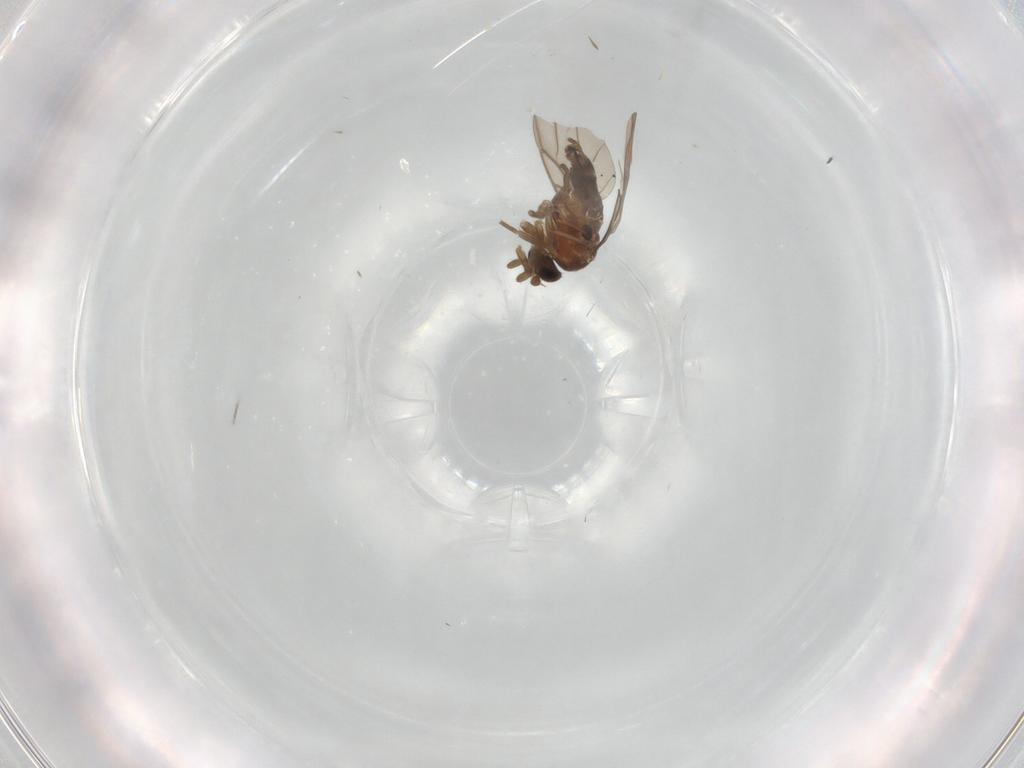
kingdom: Animalia
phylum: Arthropoda
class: Insecta
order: Diptera
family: Phoridae
